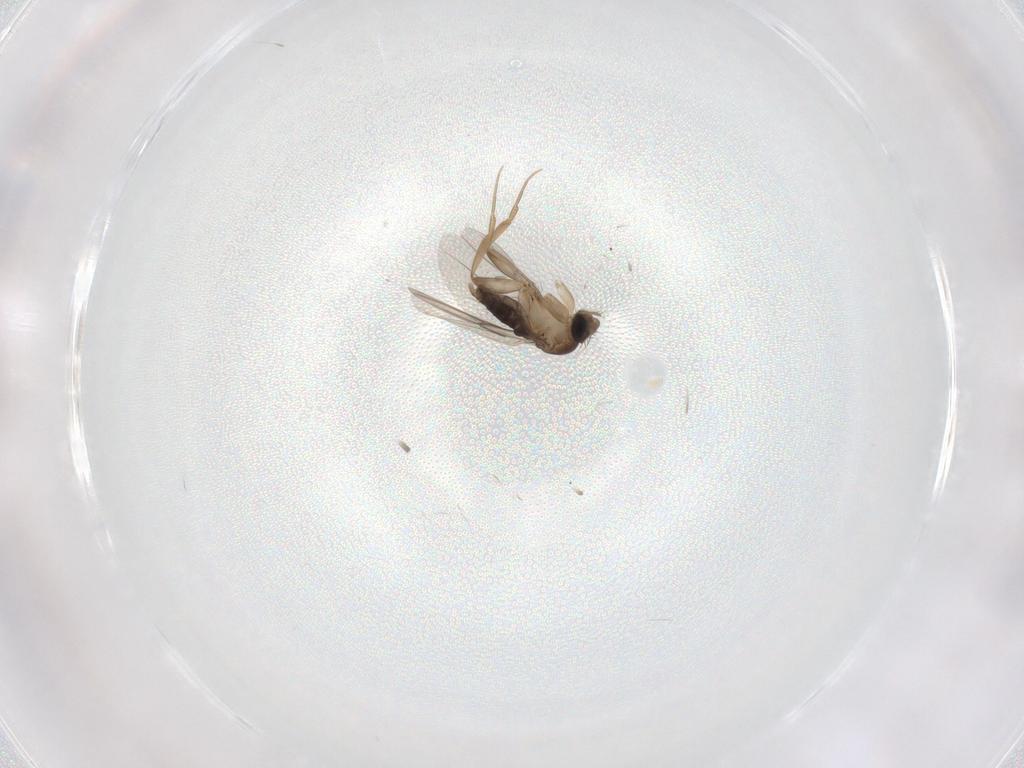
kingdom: Animalia
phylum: Arthropoda
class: Insecta
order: Diptera
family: Phoridae
